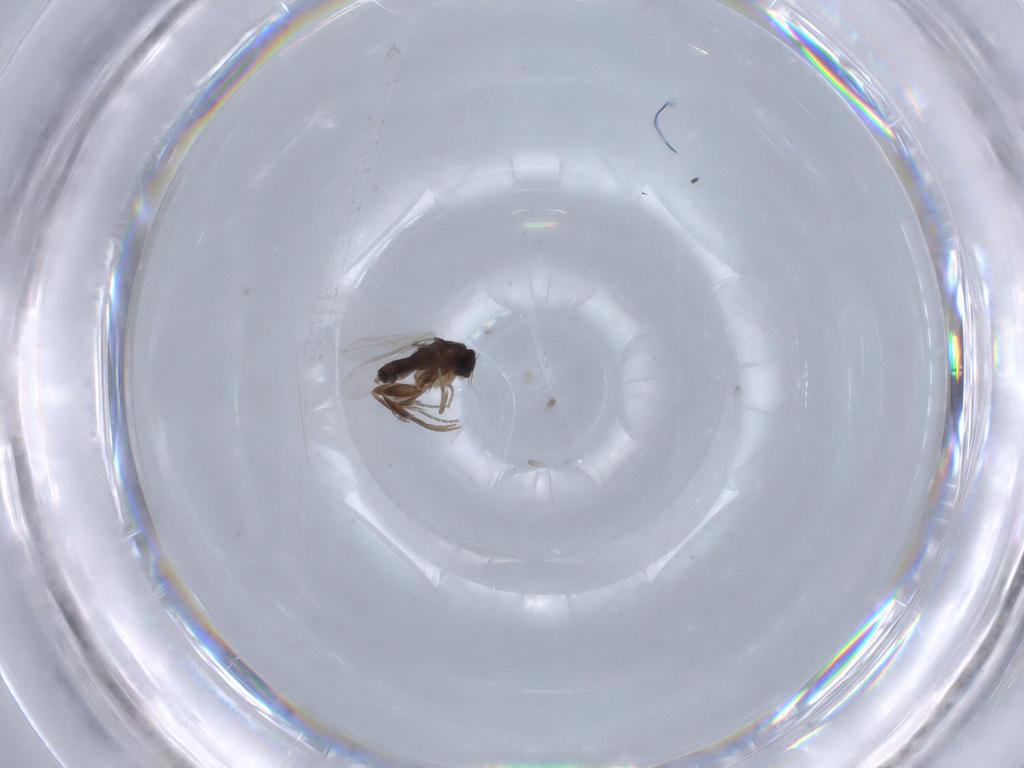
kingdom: Animalia
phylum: Arthropoda
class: Insecta
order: Diptera
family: Phoridae
